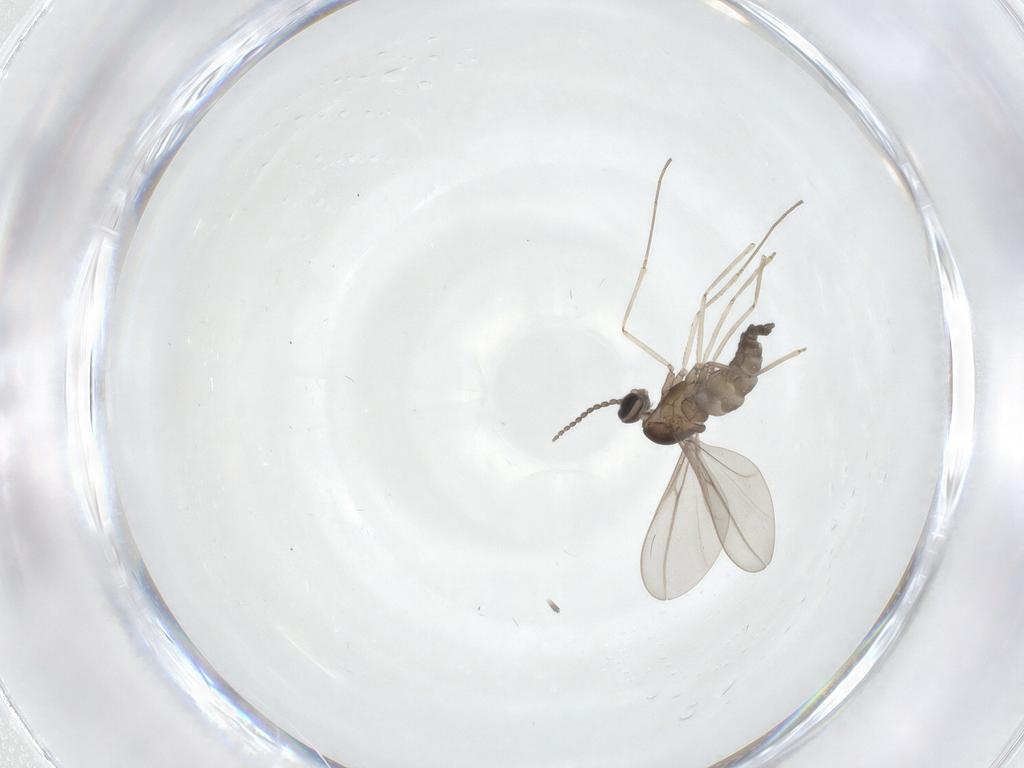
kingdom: Animalia
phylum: Arthropoda
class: Insecta
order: Diptera
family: Cecidomyiidae
